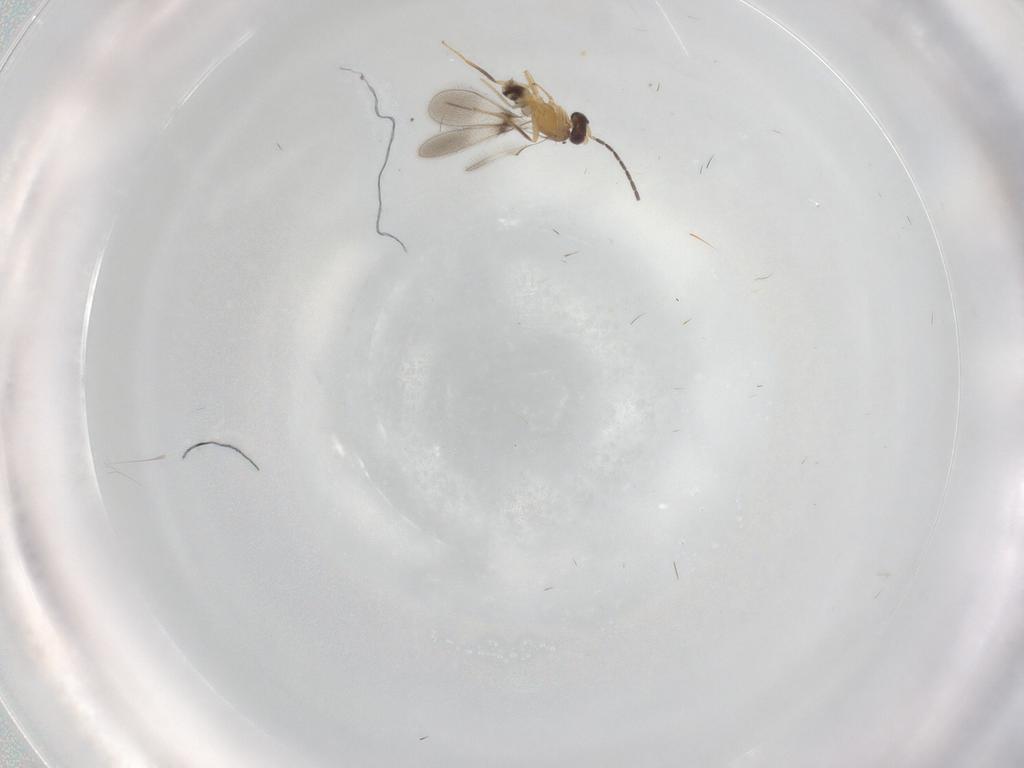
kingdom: Animalia
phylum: Arthropoda
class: Insecta
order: Hymenoptera
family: Mymaridae
